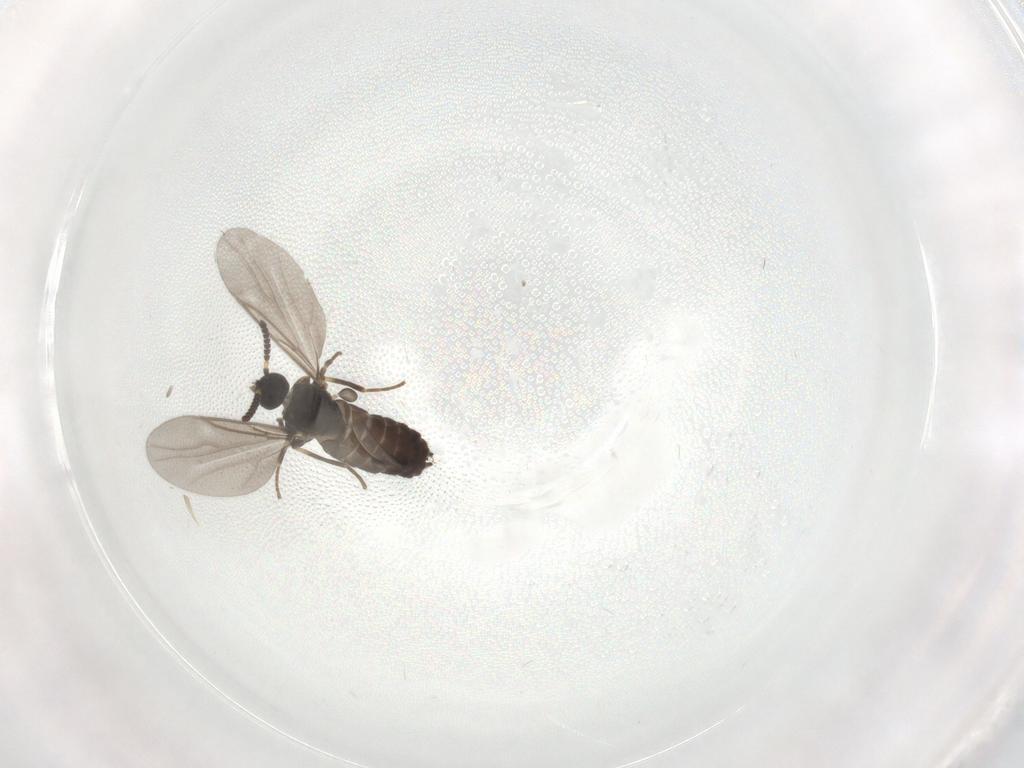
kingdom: Animalia
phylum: Arthropoda
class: Insecta
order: Diptera
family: Scatopsidae
